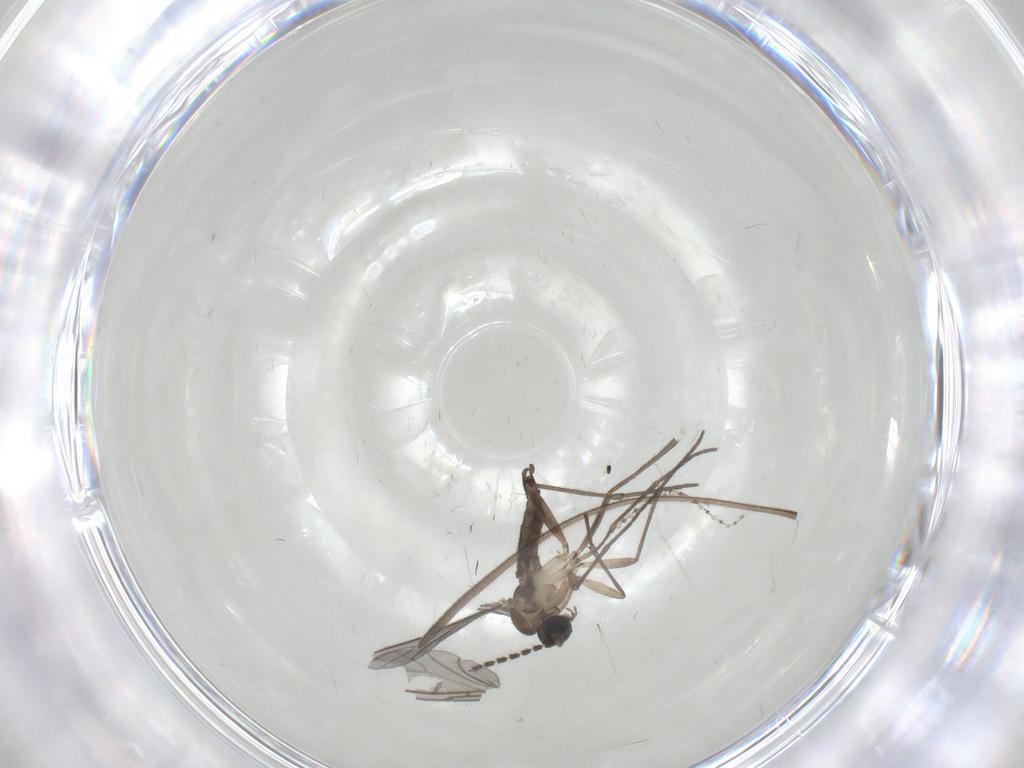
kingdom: Animalia
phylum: Arthropoda
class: Insecta
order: Diptera
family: Sciaridae
